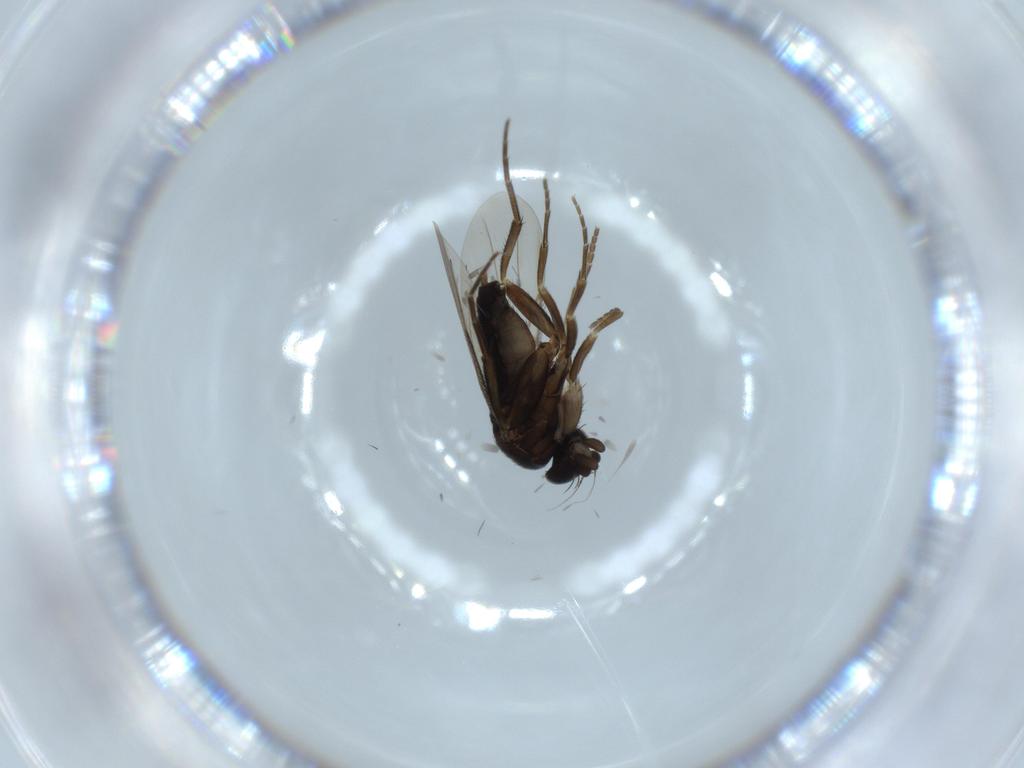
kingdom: Animalia
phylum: Arthropoda
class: Insecta
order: Diptera
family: Phoridae
